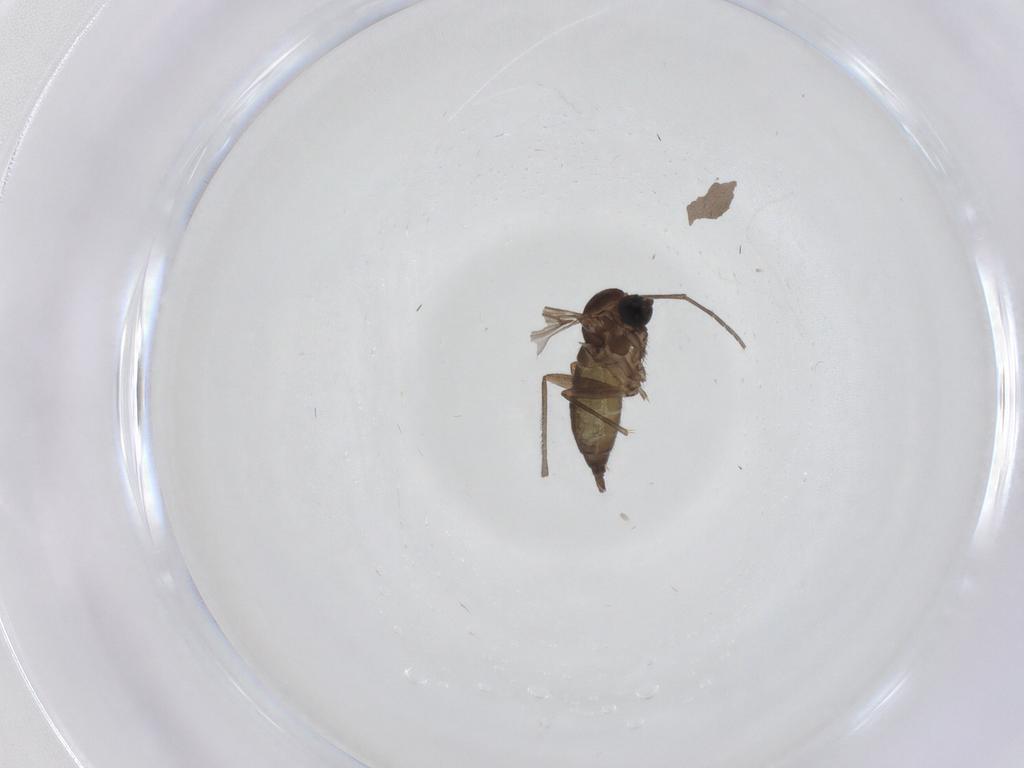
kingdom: Animalia
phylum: Arthropoda
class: Insecta
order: Diptera
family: Sciaridae
